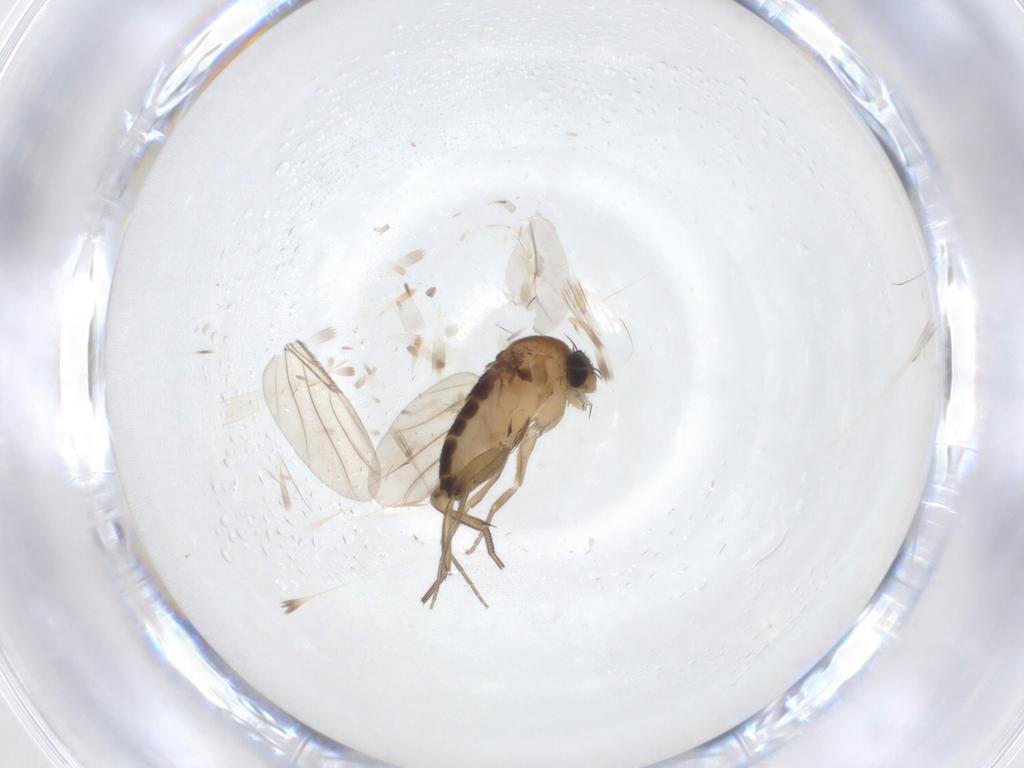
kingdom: Animalia
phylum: Arthropoda
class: Insecta
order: Diptera
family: Ceratopogonidae
